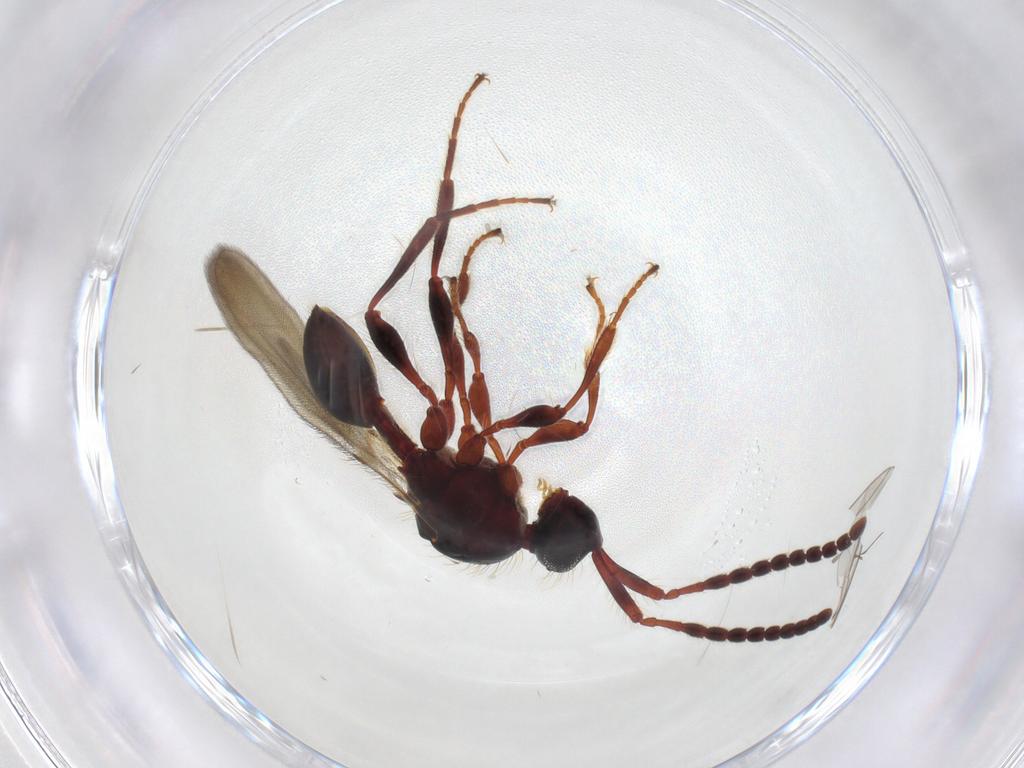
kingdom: Animalia
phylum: Arthropoda
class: Insecta
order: Hymenoptera
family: Diapriidae
